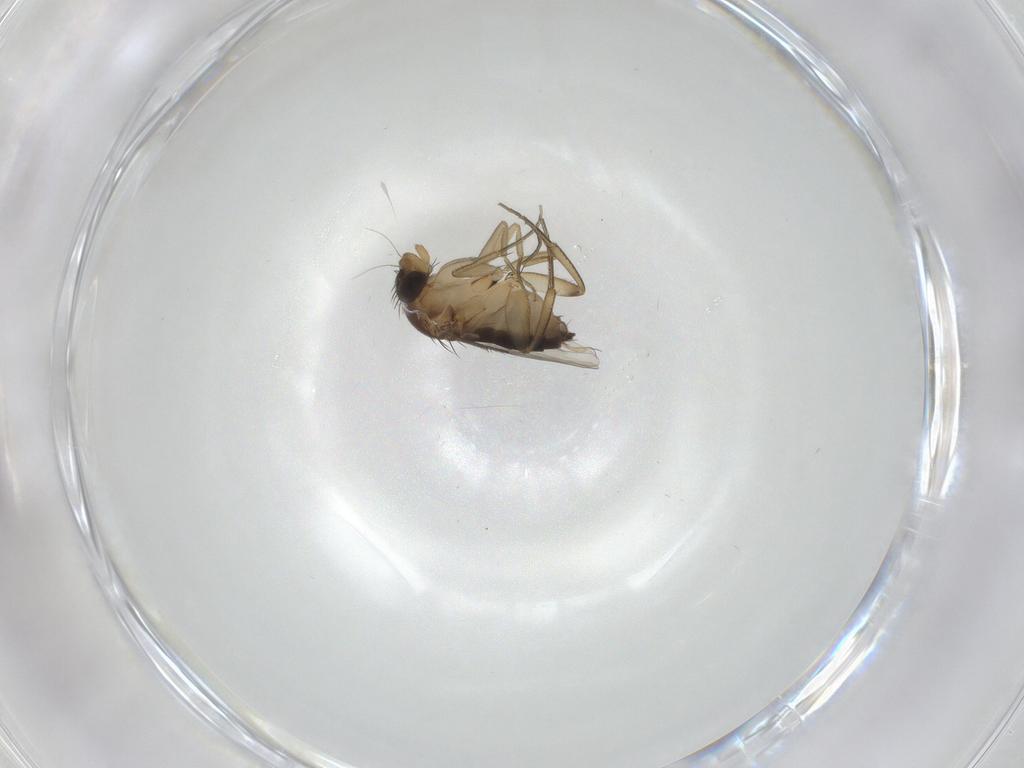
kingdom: Animalia
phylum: Arthropoda
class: Insecta
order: Diptera
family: Phoridae
